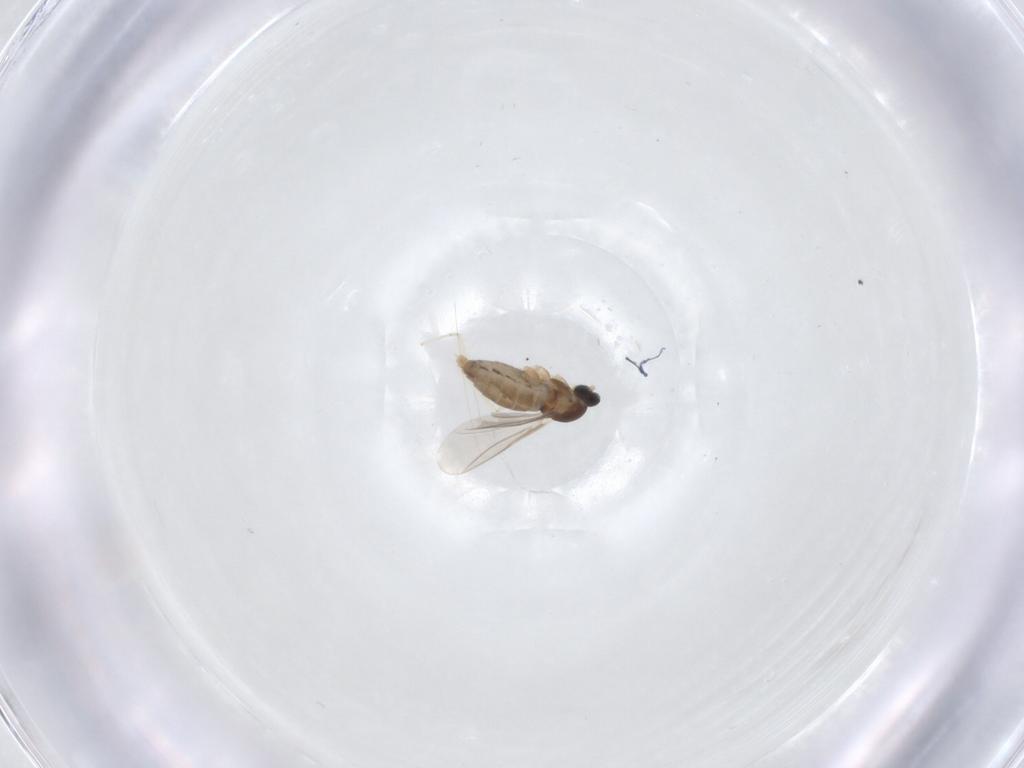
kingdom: Animalia
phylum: Arthropoda
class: Insecta
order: Diptera
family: Cecidomyiidae
